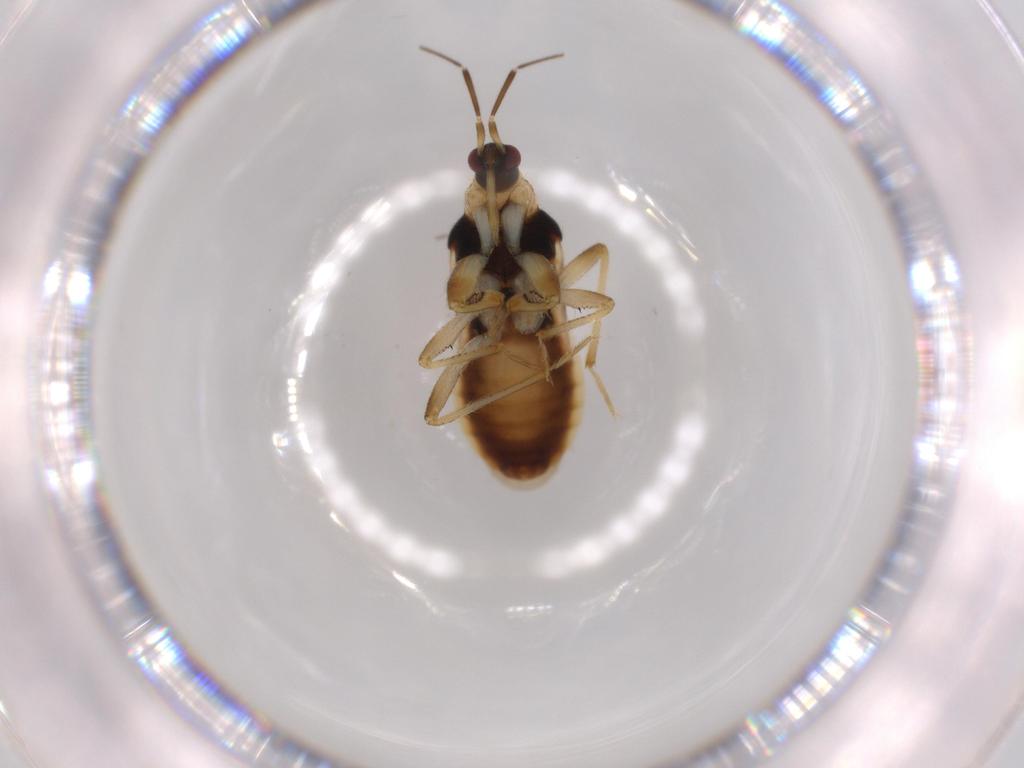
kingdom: Animalia
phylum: Arthropoda
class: Insecta
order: Hemiptera
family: Nabidae
